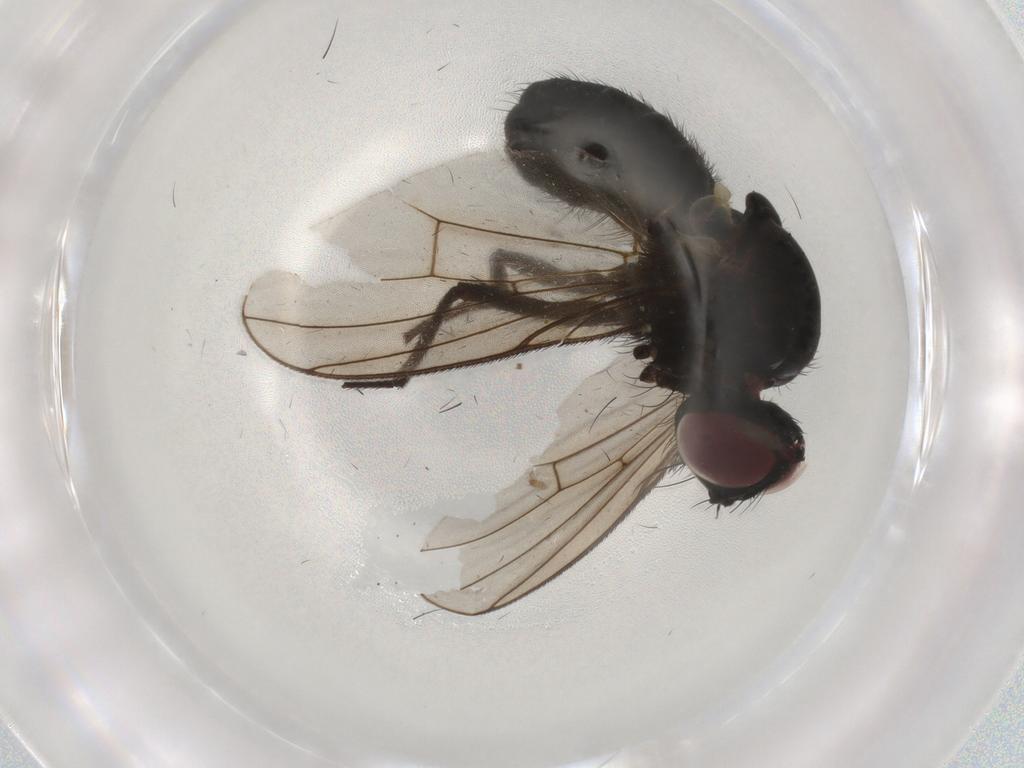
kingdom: Animalia
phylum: Arthropoda
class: Insecta
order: Diptera
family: Muscidae
